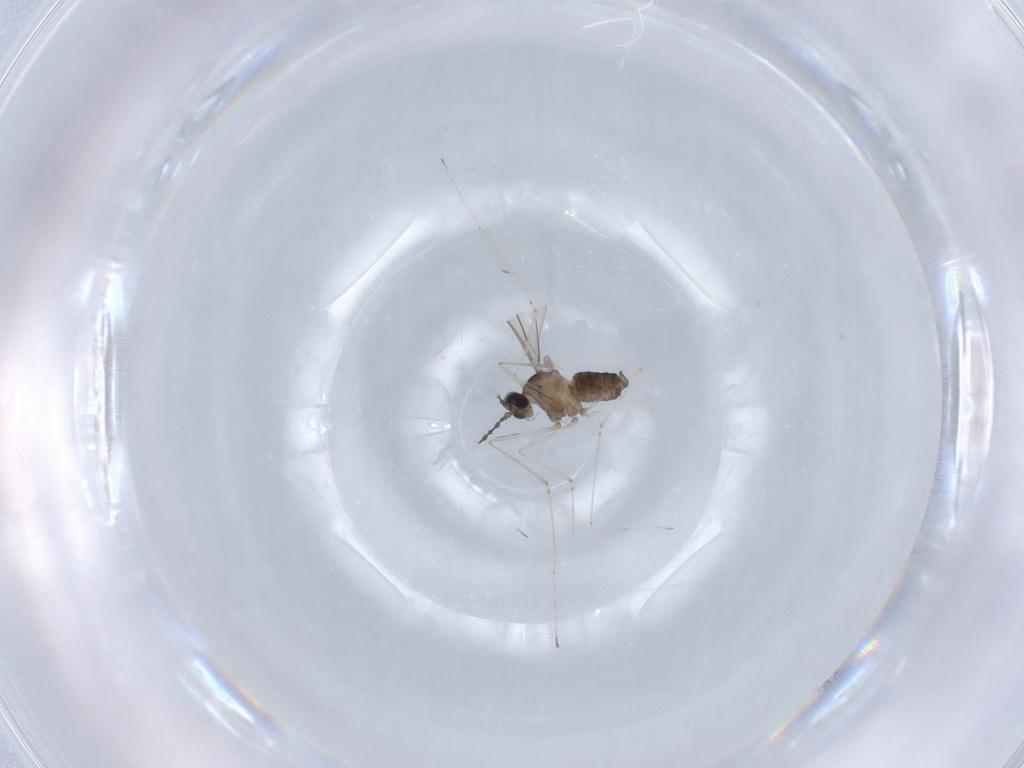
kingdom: Animalia
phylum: Arthropoda
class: Insecta
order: Diptera
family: Cecidomyiidae
